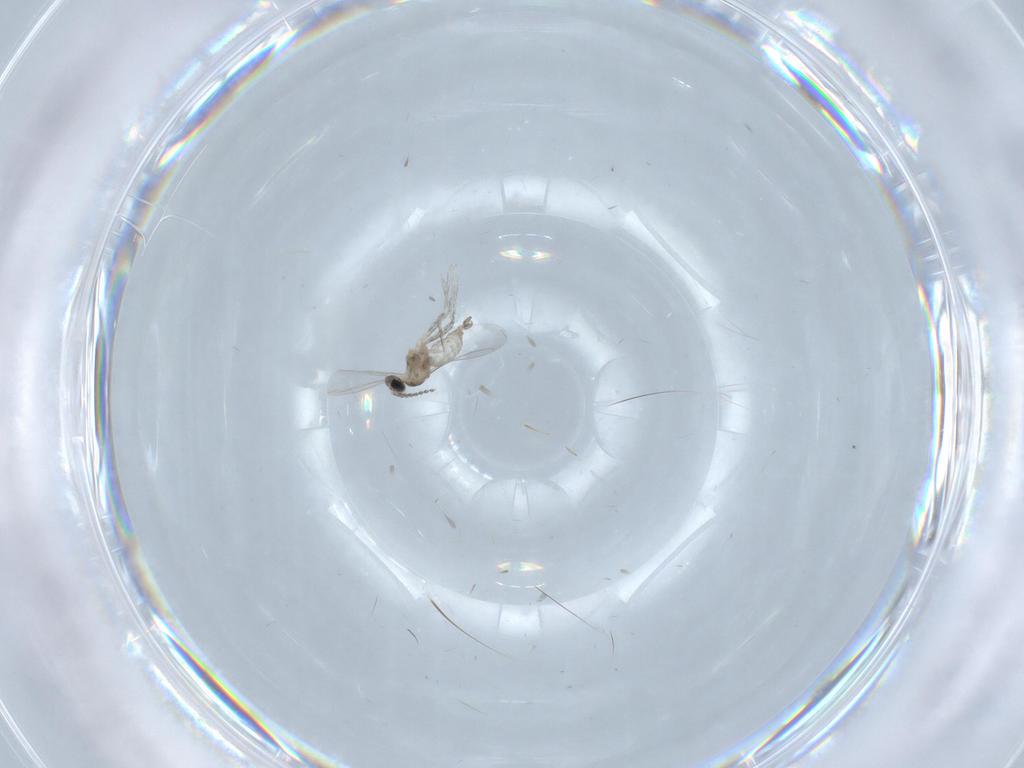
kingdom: Animalia
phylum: Arthropoda
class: Insecta
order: Diptera
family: Cecidomyiidae
